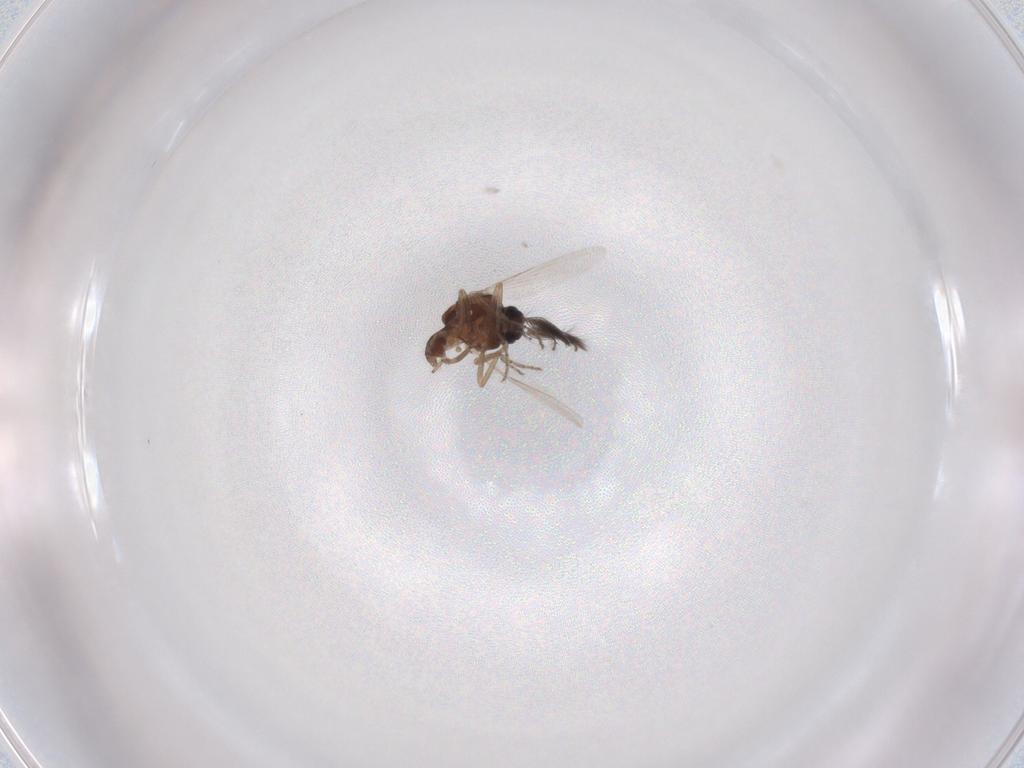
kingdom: Animalia
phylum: Arthropoda
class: Insecta
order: Diptera
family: Ceratopogonidae
